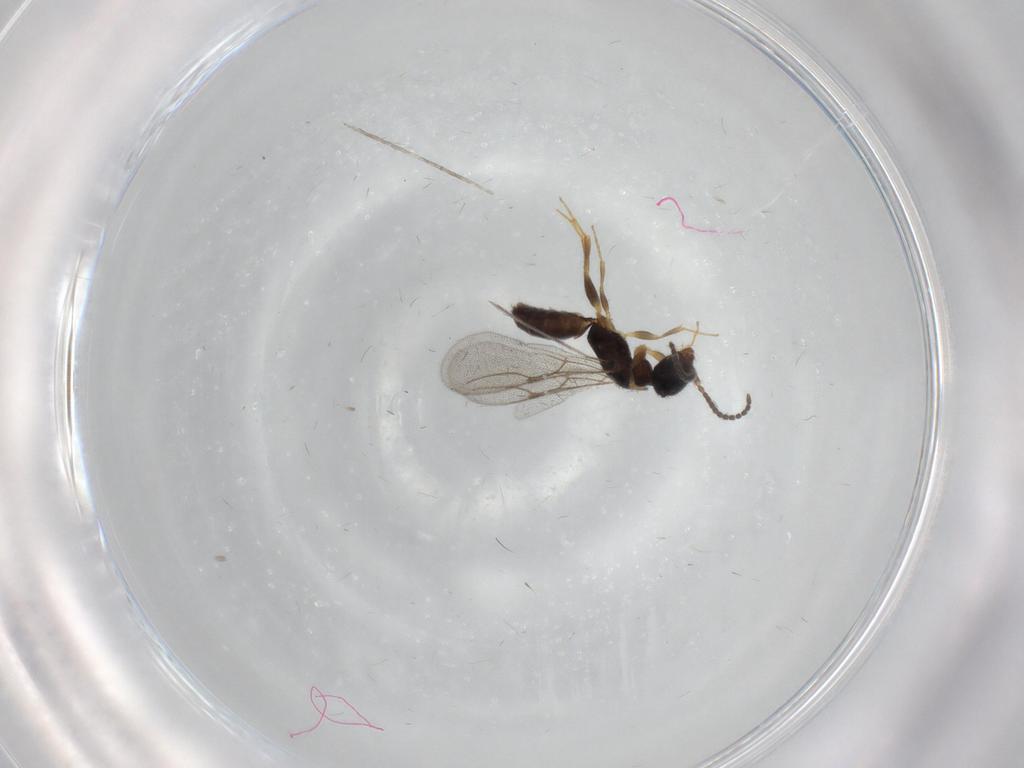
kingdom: Animalia
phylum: Arthropoda
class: Insecta
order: Hymenoptera
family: Bethylidae
